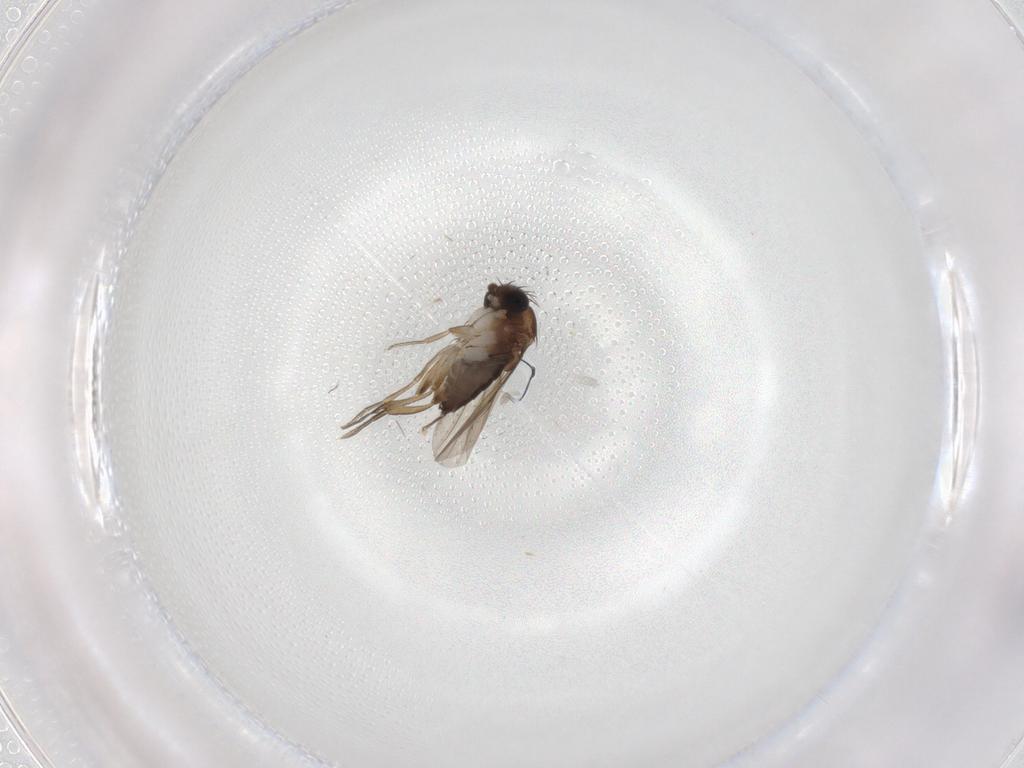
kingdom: Animalia
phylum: Arthropoda
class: Insecta
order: Diptera
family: Phoridae
